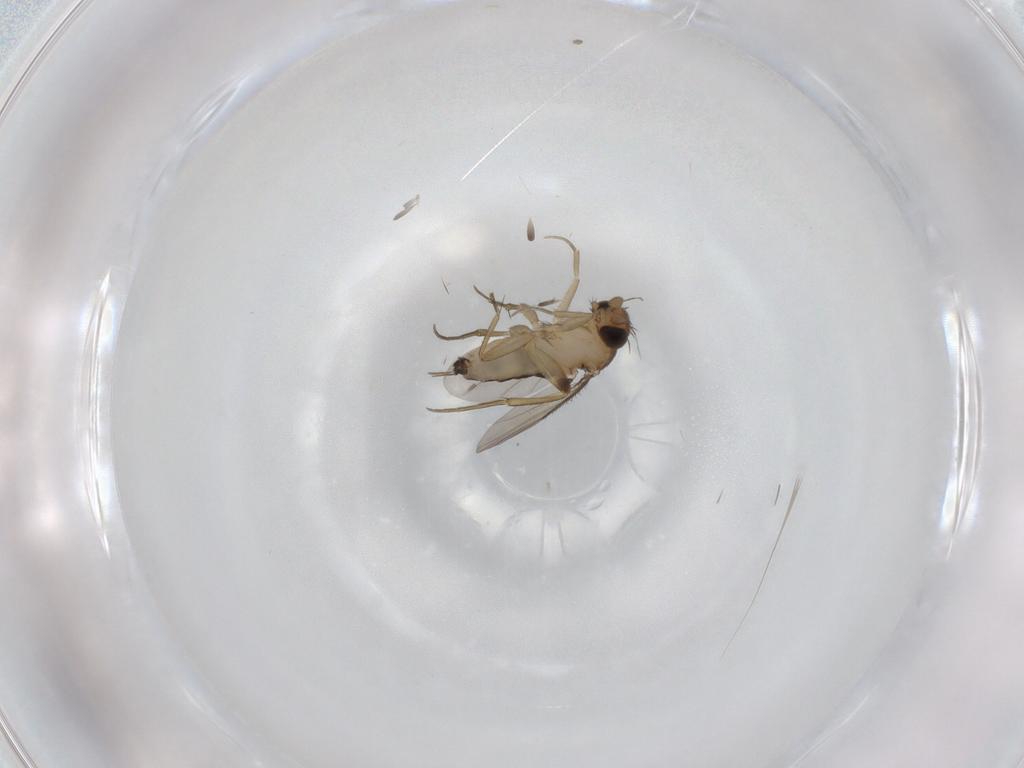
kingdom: Animalia
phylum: Arthropoda
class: Insecta
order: Diptera
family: Phoridae
